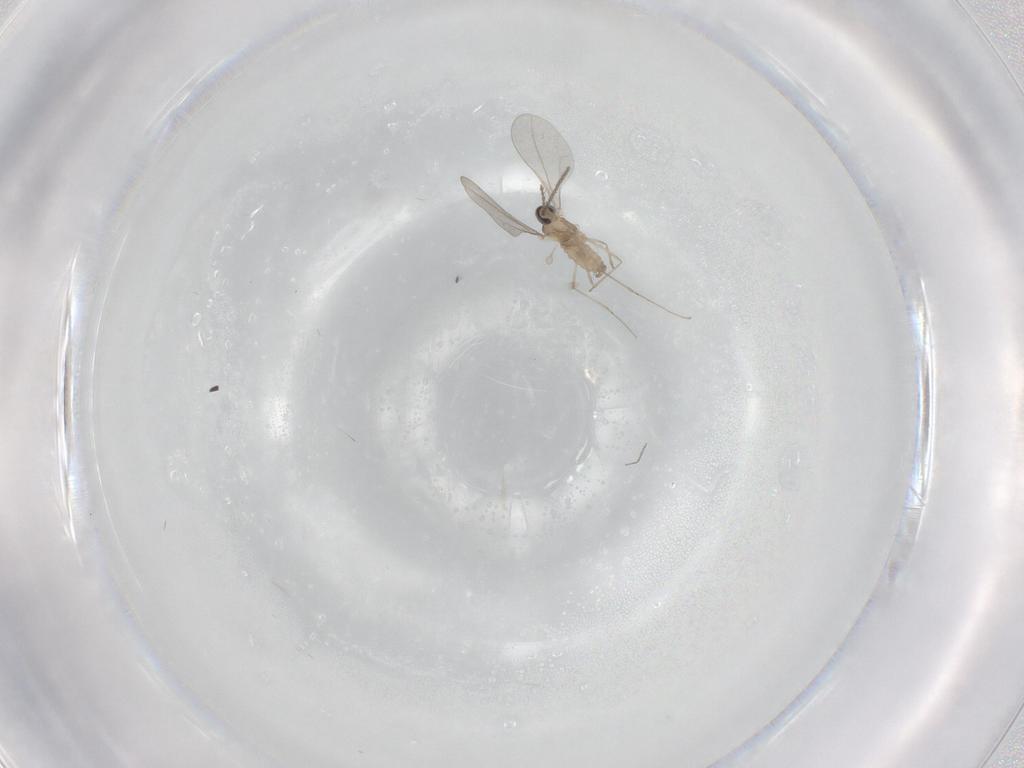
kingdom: Animalia
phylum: Arthropoda
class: Insecta
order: Diptera
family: Cecidomyiidae
